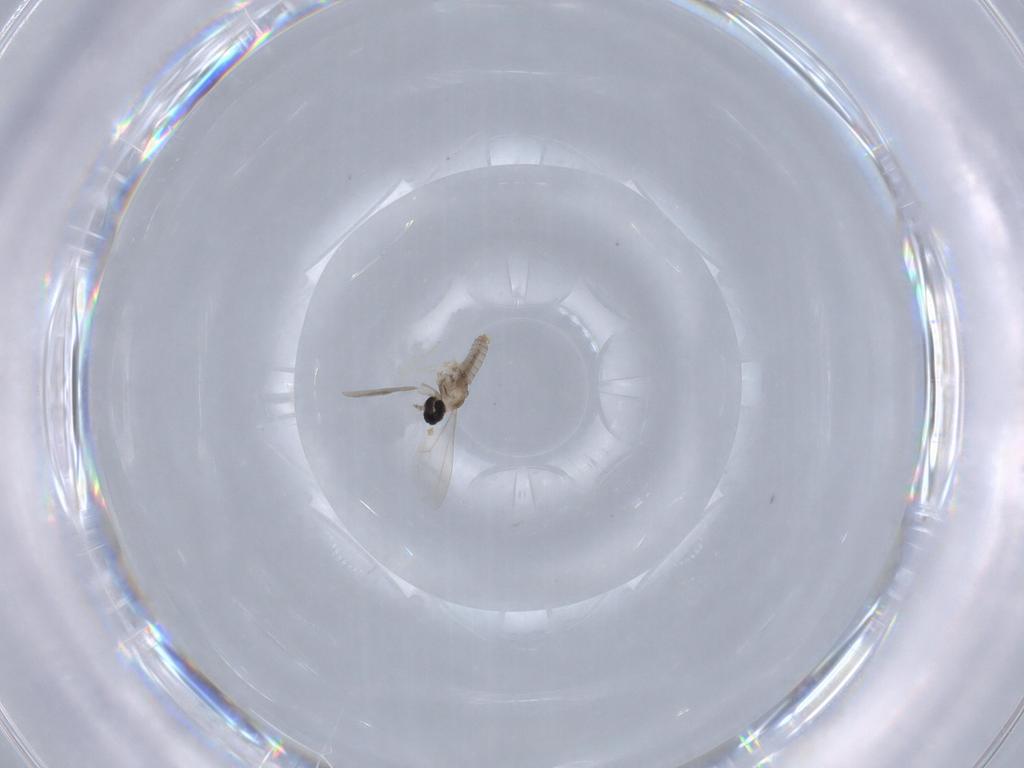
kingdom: Animalia
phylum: Arthropoda
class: Insecta
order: Diptera
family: Cecidomyiidae
